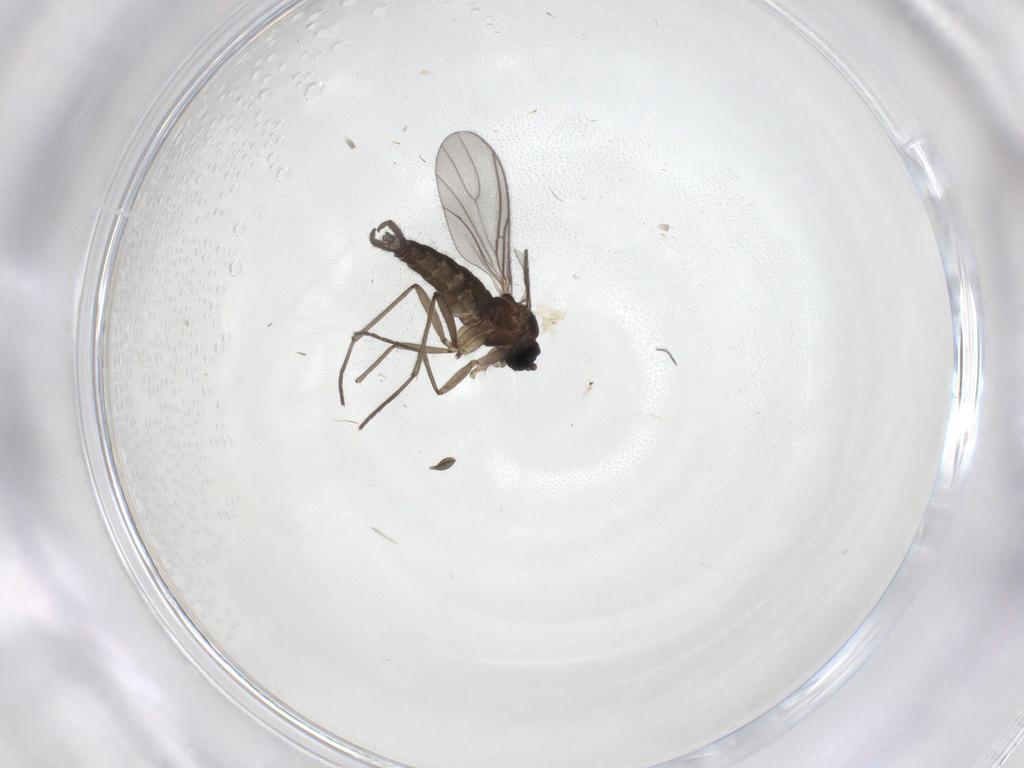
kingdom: Animalia
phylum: Arthropoda
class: Insecta
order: Diptera
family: Sciaridae
